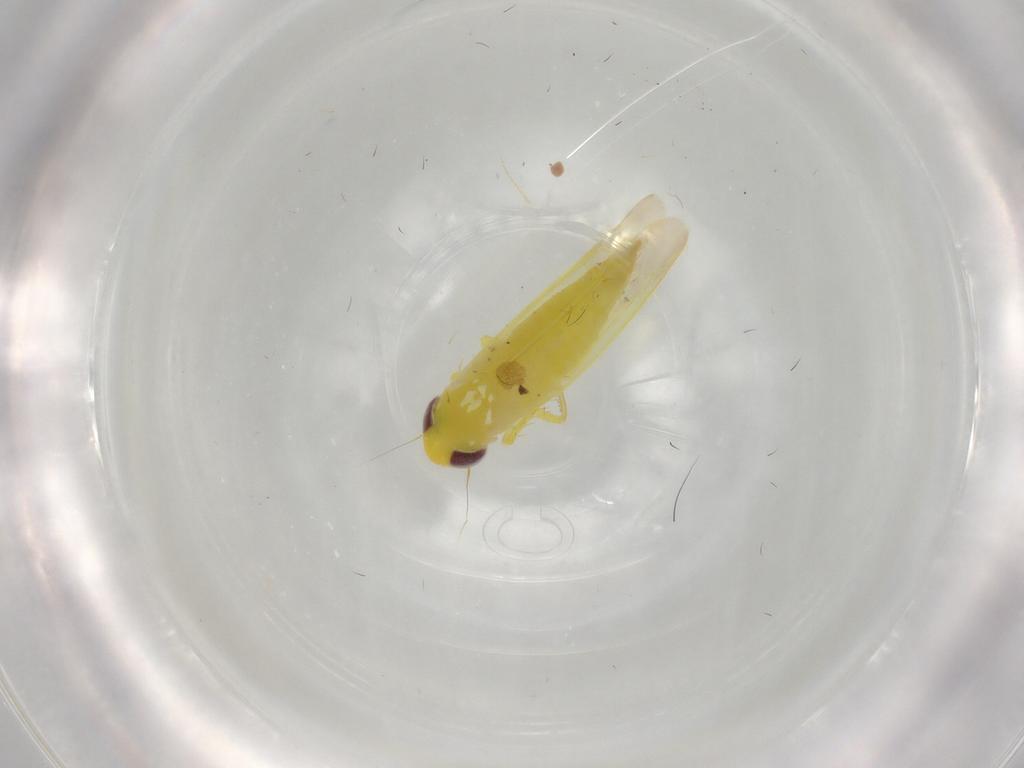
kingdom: Animalia
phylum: Arthropoda
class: Insecta
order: Hemiptera
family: Cicadellidae
